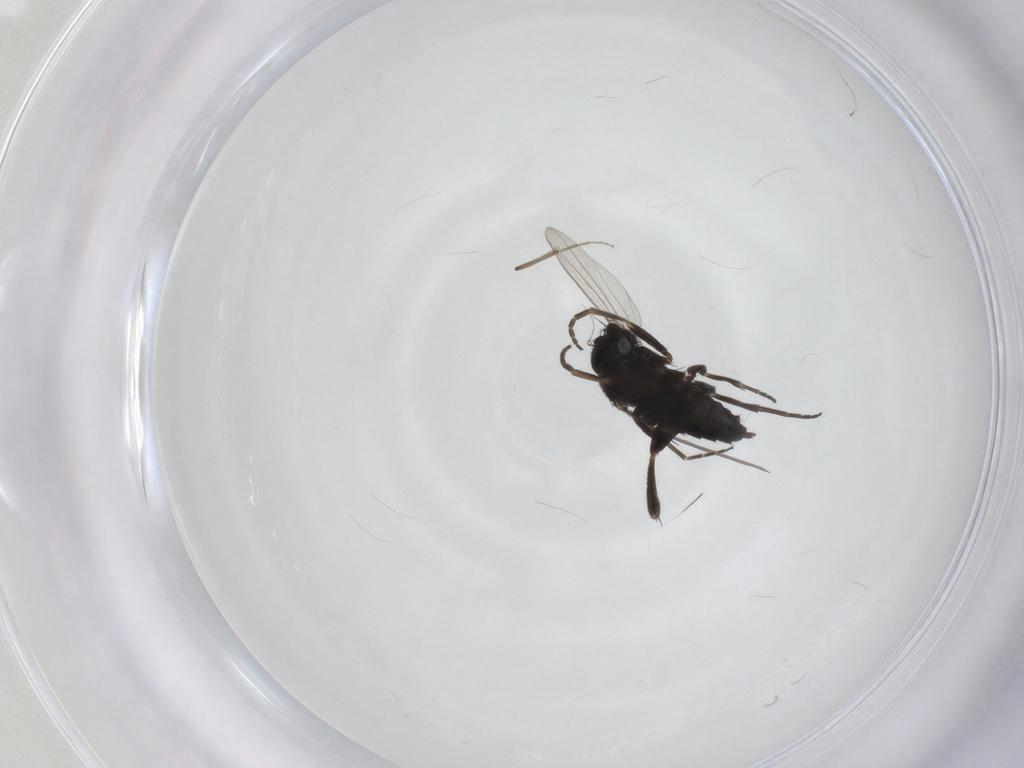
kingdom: Animalia
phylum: Arthropoda
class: Insecta
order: Diptera
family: Phoridae
